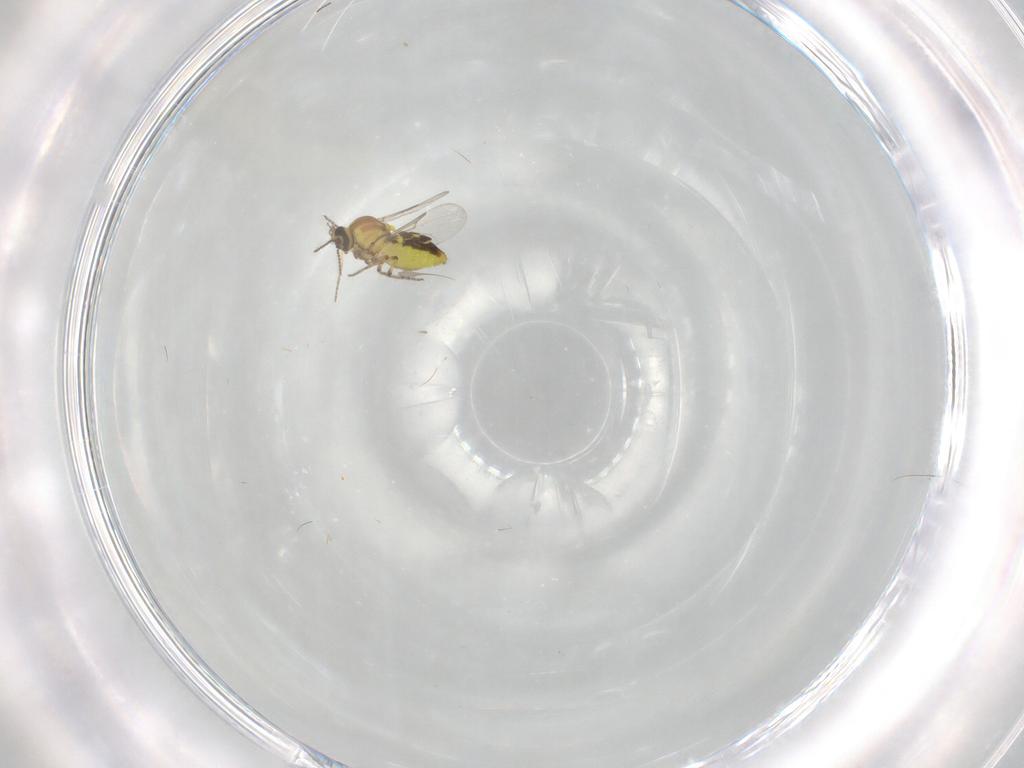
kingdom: Animalia
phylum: Arthropoda
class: Insecta
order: Diptera
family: Ceratopogonidae
